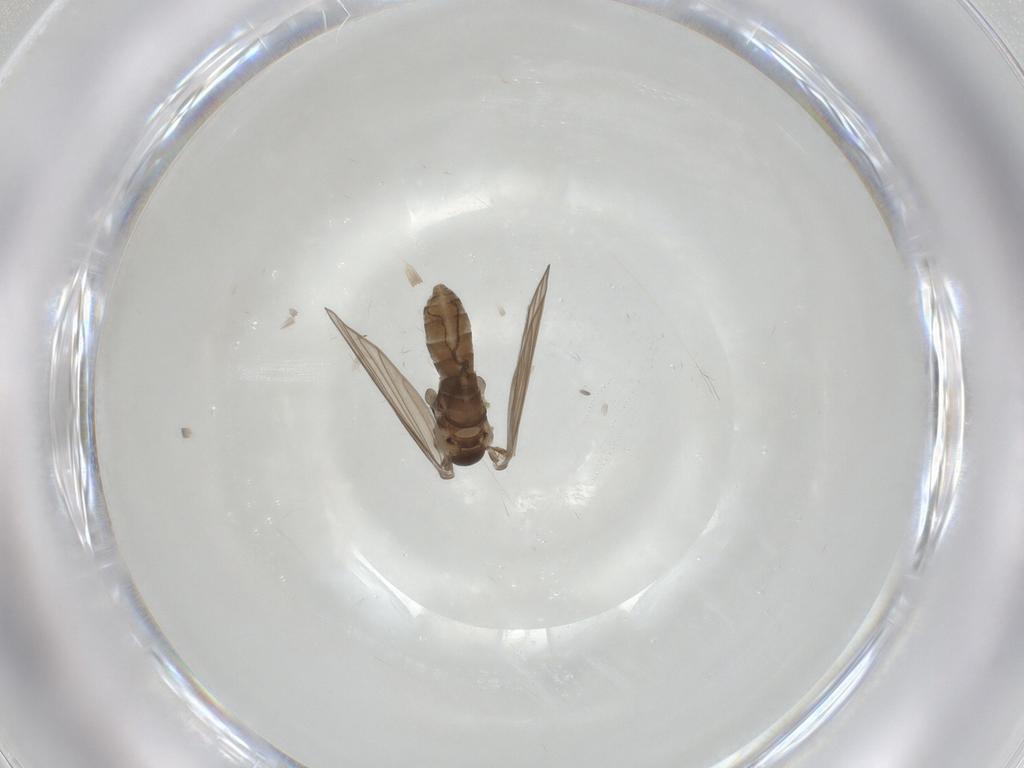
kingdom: Animalia
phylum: Arthropoda
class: Insecta
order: Diptera
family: Psychodidae
